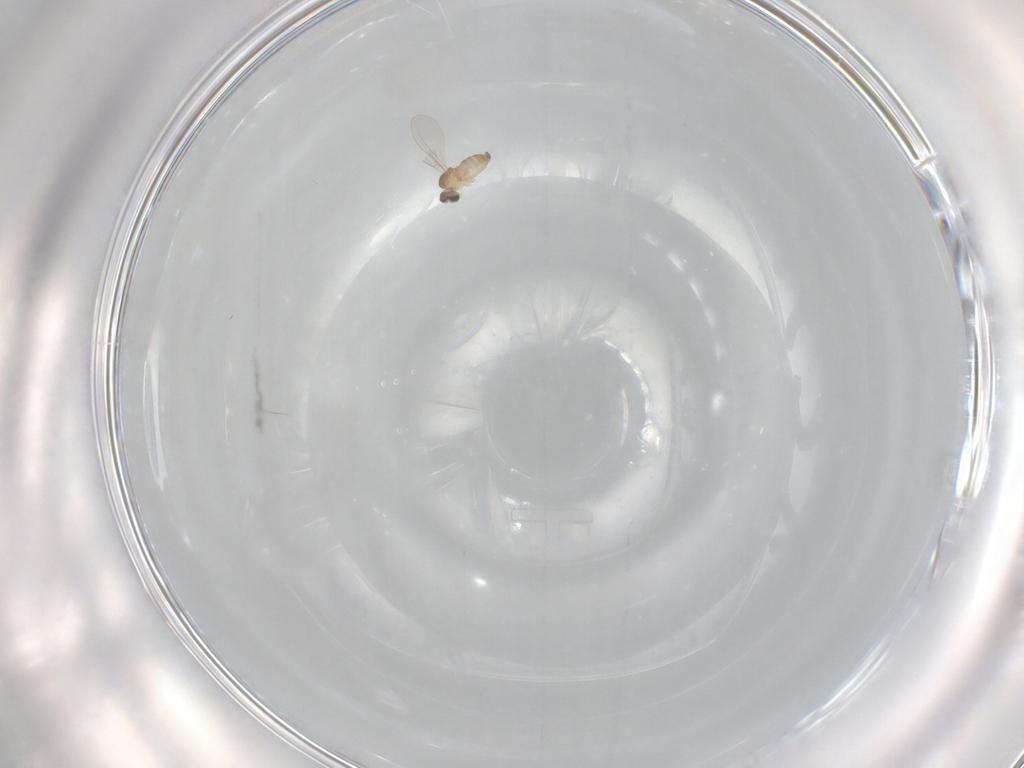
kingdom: Animalia
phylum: Arthropoda
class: Insecta
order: Diptera
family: Cecidomyiidae
